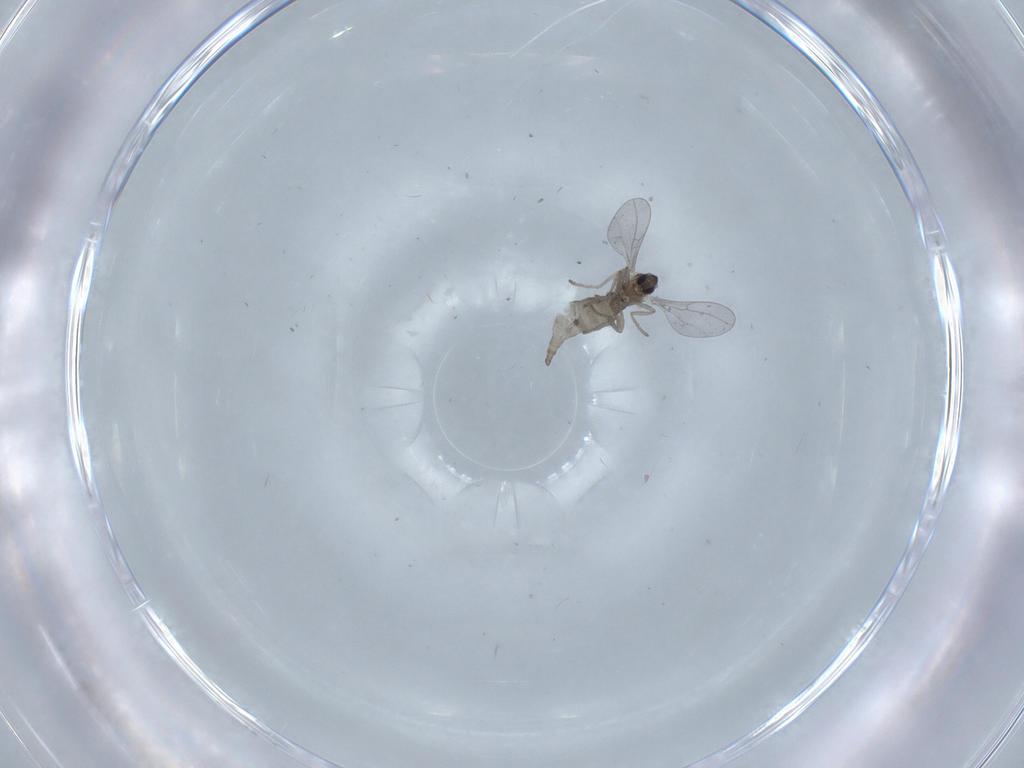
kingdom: Animalia
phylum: Arthropoda
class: Insecta
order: Diptera
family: Cecidomyiidae
